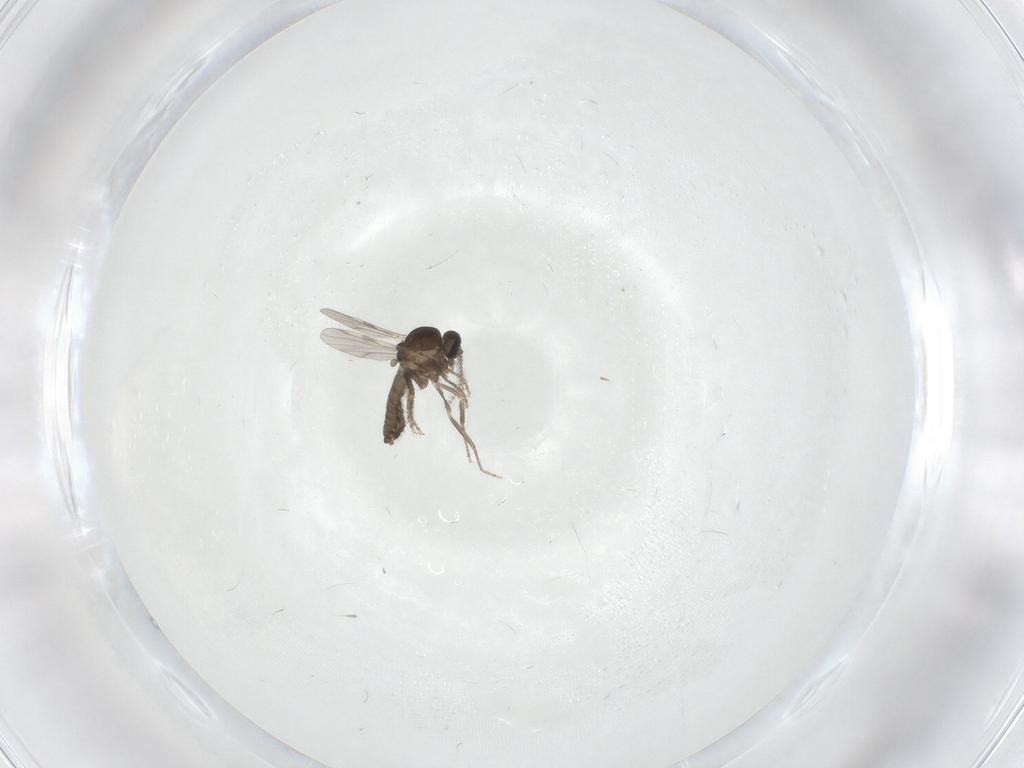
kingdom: Animalia
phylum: Arthropoda
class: Insecta
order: Diptera
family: Ceratopogonidae
